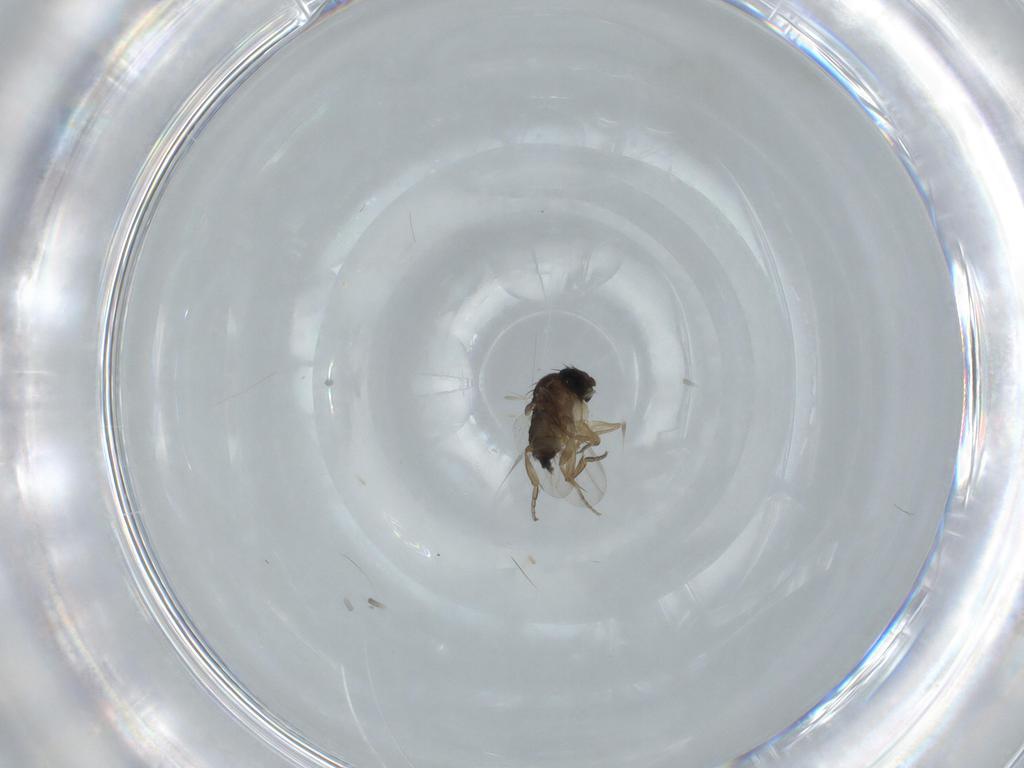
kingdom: Animalia
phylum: Arthropoda
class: Insecta
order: Diptera
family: Phoridae
